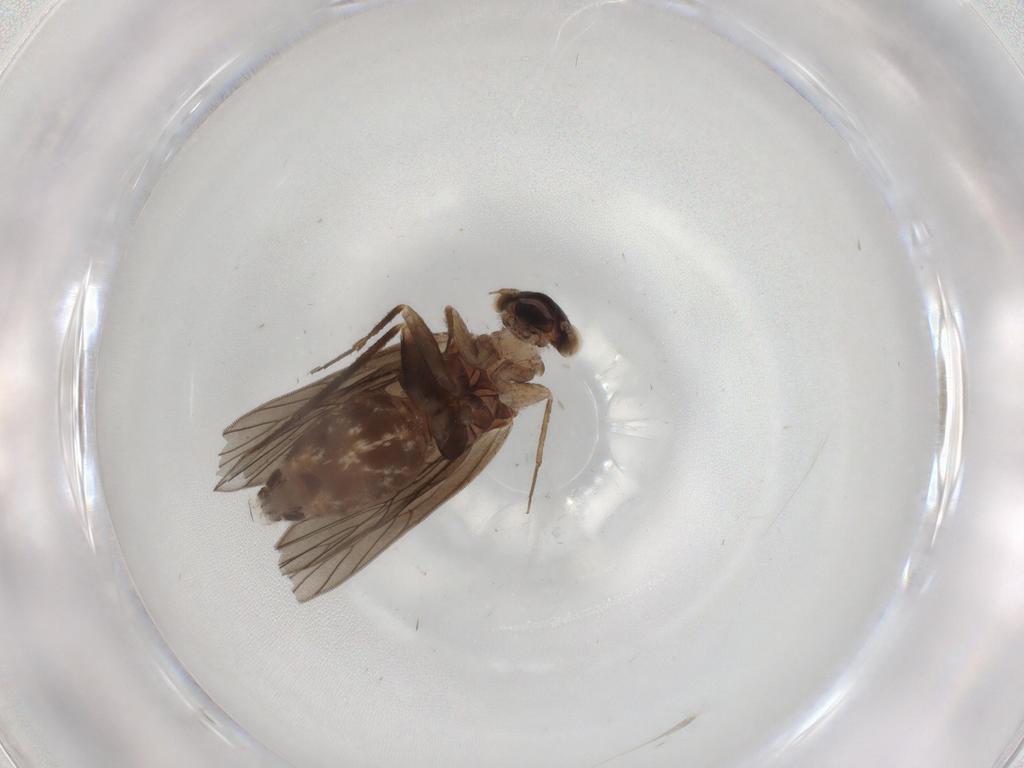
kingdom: Animalia
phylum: Arthropoda
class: Insecta
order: Psocodea
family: Lepidopsocidae
